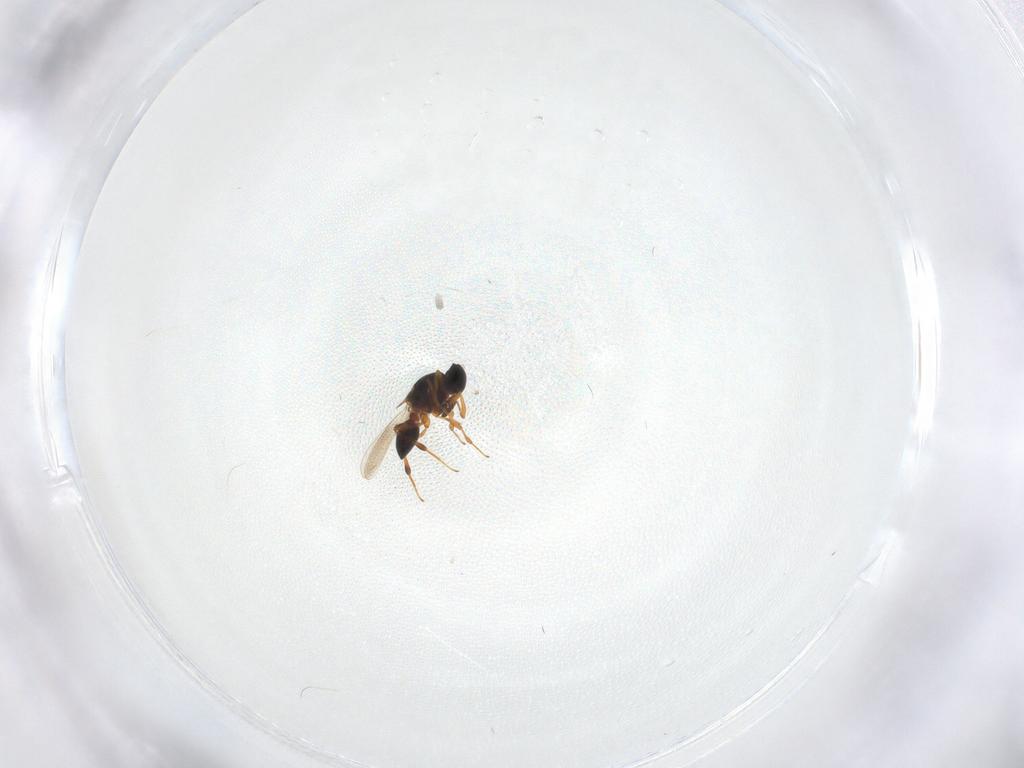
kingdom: Animalia
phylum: Arthropoda
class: Insecta
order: Hymenoptera
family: Platygastridae
